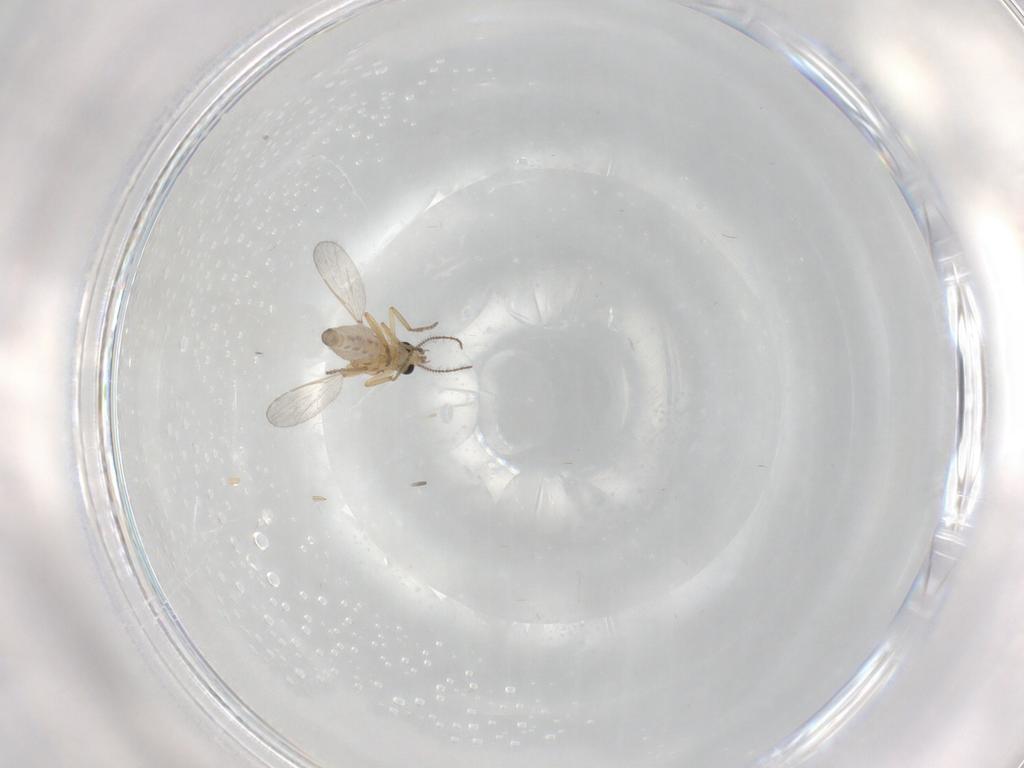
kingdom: Animalia
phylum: Arthropoda
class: Insecta
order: Diptera
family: Ceratopogonidae
